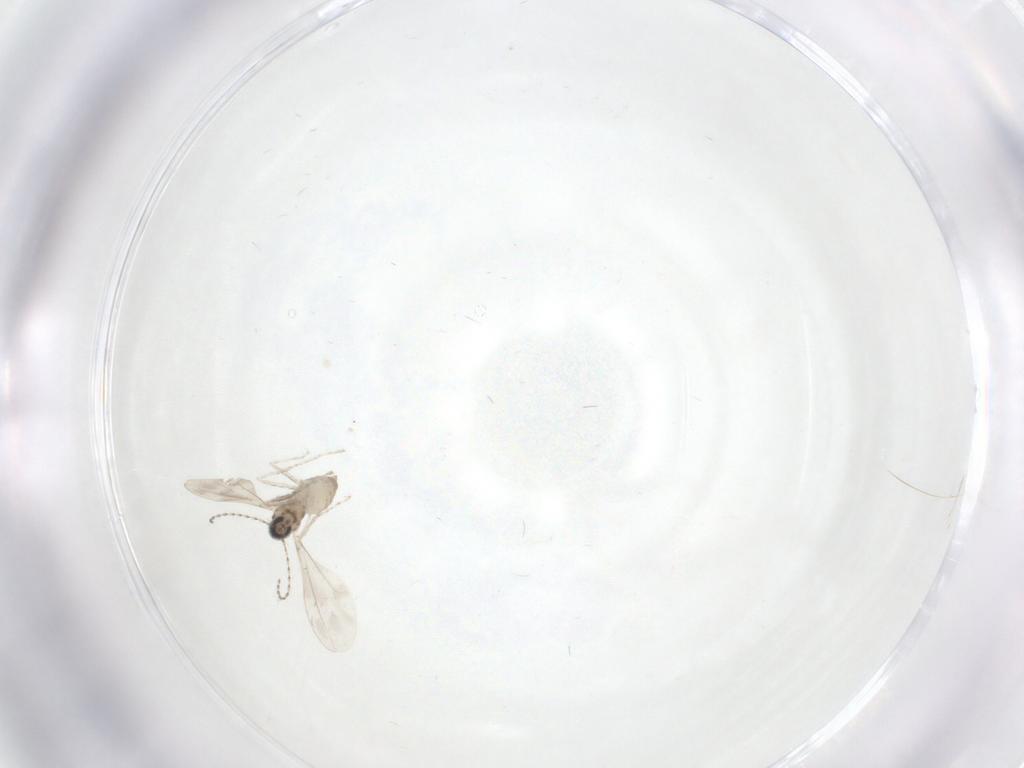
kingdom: Animalia
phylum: Arthropoda
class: Insecta
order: Diptera
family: Cecidomyiidae
